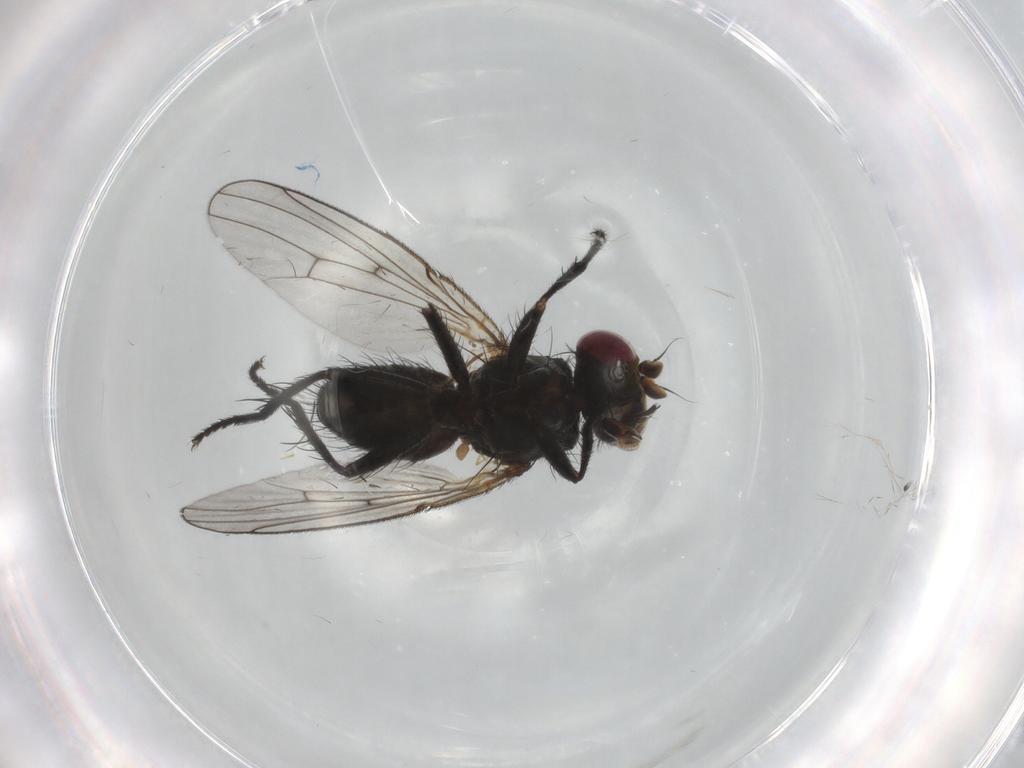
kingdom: Animalia
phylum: Arthropoda
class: Insecta
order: Diptera
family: Muscidae
